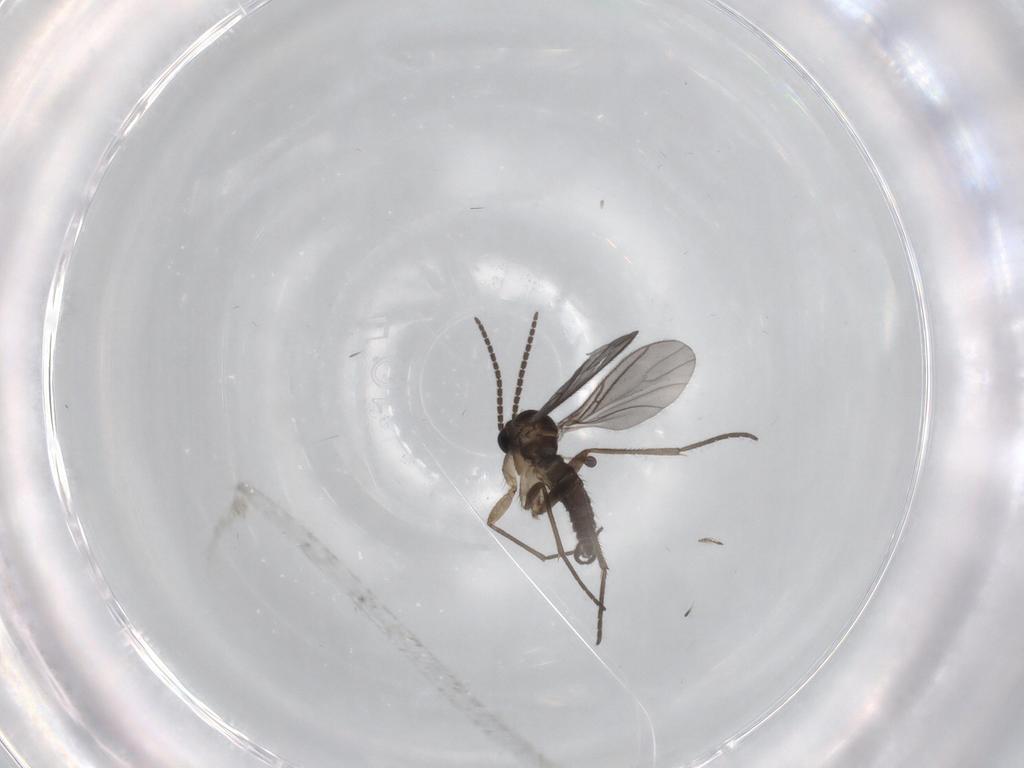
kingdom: Animalia
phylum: Arthropoda
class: Insecta
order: Diptera
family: Sciaridae
